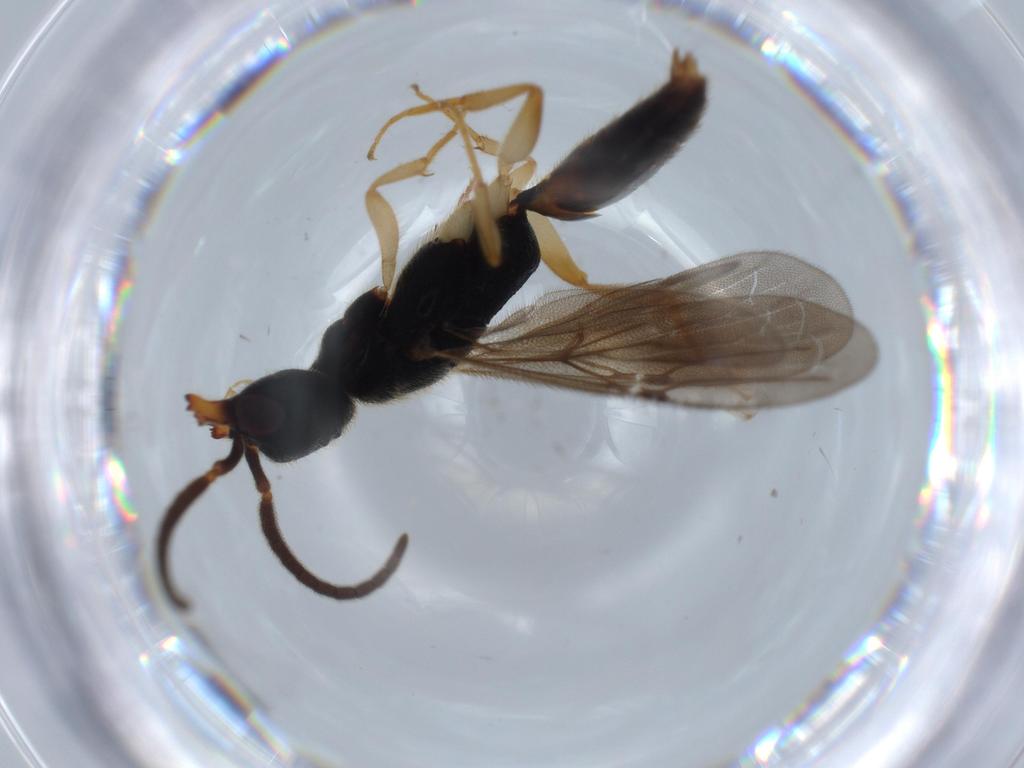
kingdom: Animalia
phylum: Arthropoda
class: Insecta
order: Hymenoptera
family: Bethylidae
